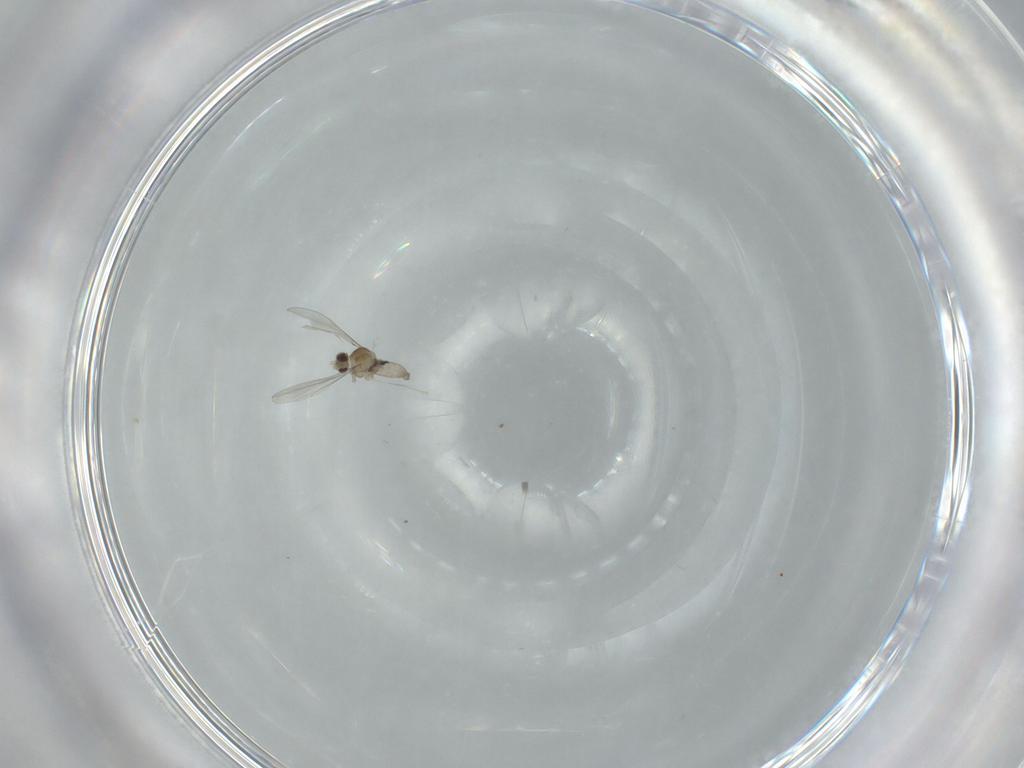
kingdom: Animalia
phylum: Arthropoda
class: Insecta
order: Diptera
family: Cecidomyiidae
